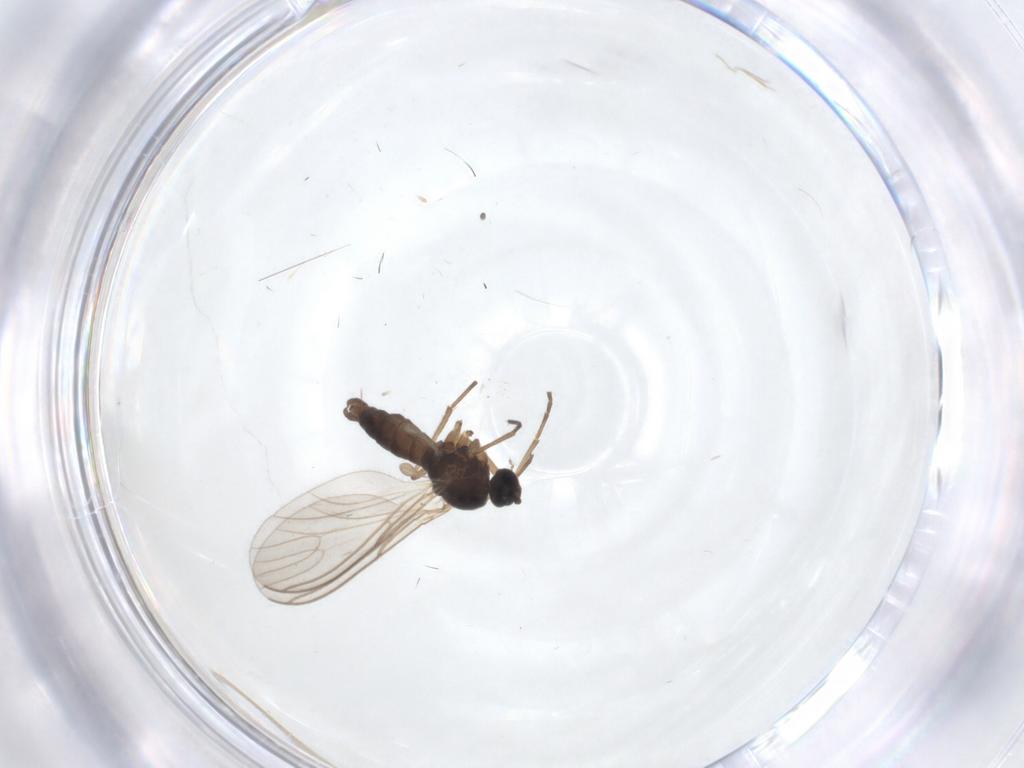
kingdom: Animalia
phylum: Arthropoda
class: Insecta
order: Diptera
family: Sciaridae
